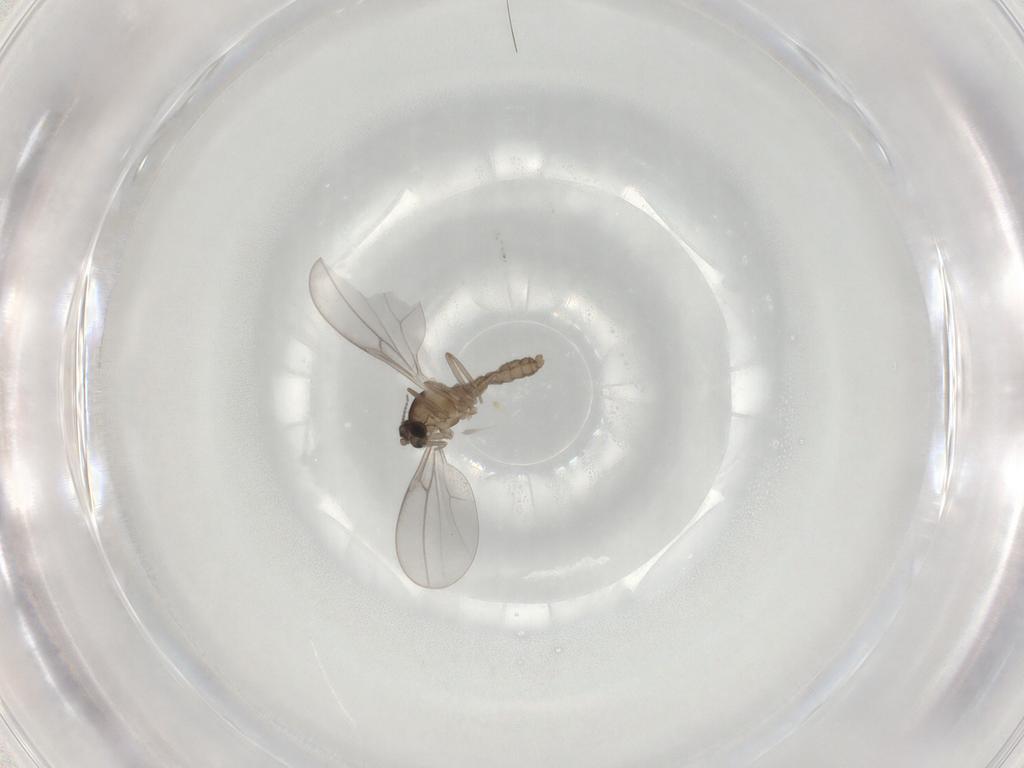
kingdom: Animalia
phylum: Arthropoda
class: Insecta
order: Diptera
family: Cecidomyiidae
